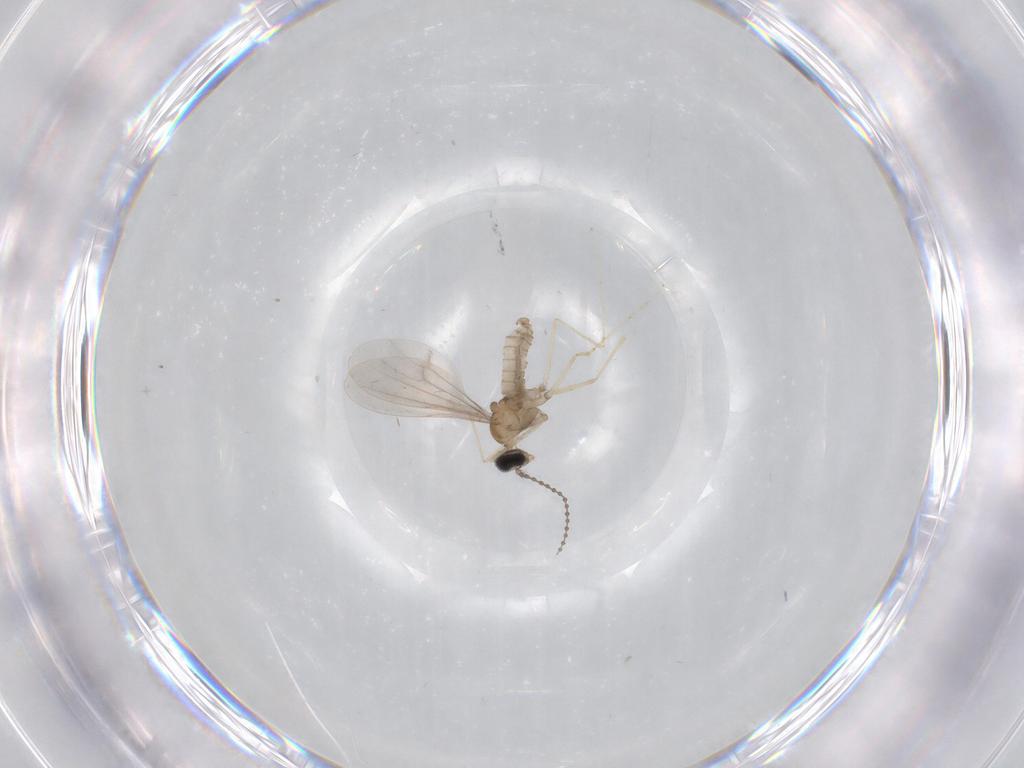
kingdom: Animalia
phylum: Arthropoda
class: Insecta
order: Diptera
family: Cecidomyiidae
